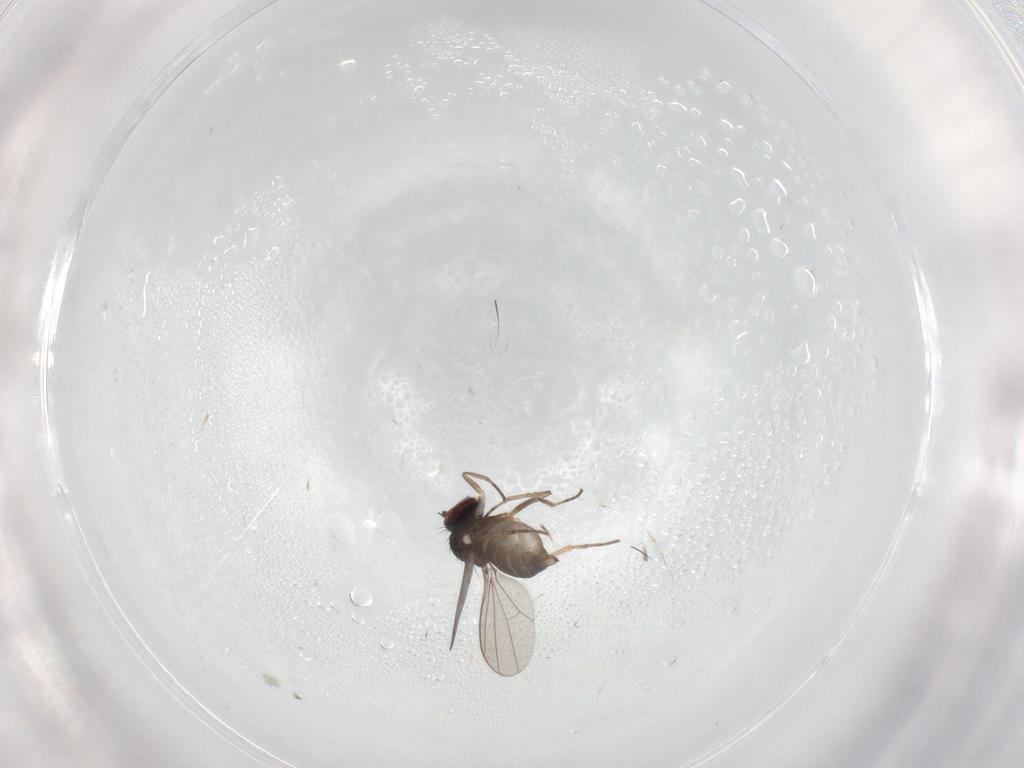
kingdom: Animalia
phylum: Arthropoda
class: Insecta
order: Diptera
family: Dolichopodidae
